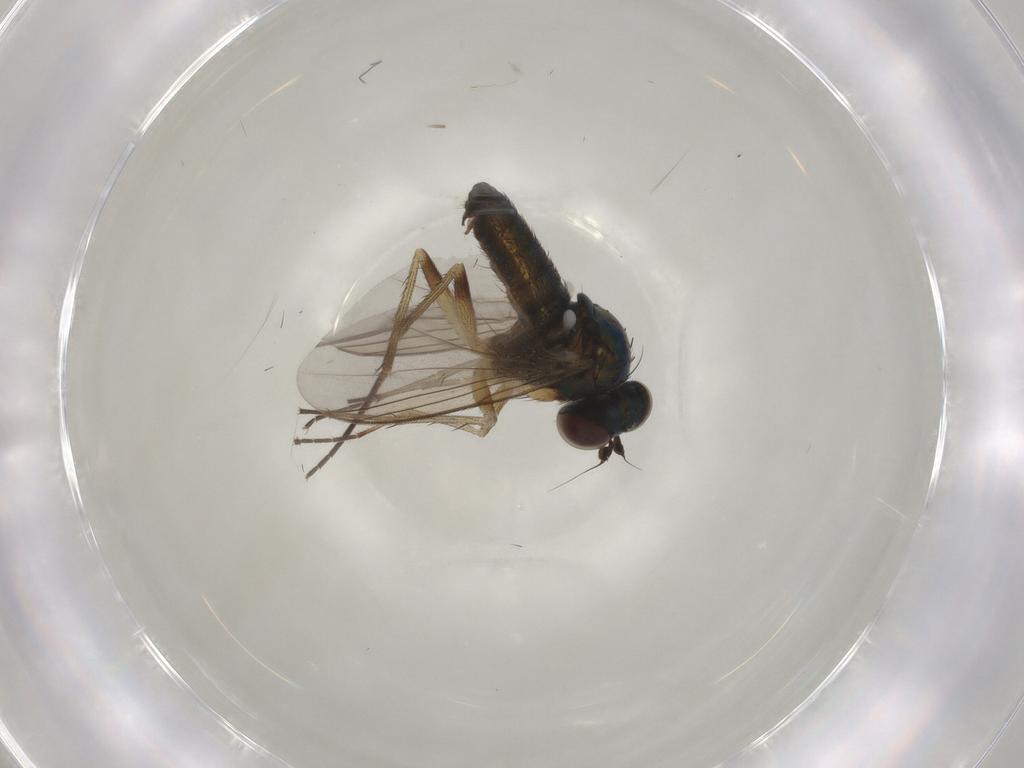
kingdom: Animalia
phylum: Arthropoda
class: Insecta
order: Diptera
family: Dolichopodidae
